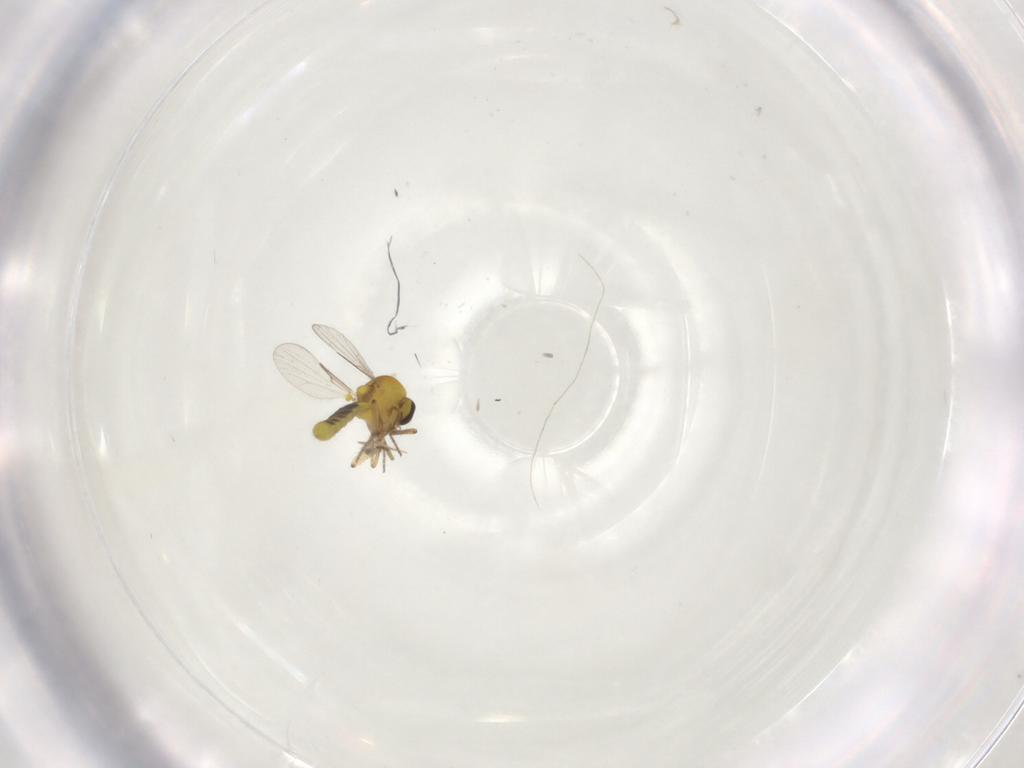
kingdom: Animalia
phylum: Arthropoda
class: Insecta
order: Diptera
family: Ceratopogonidae
